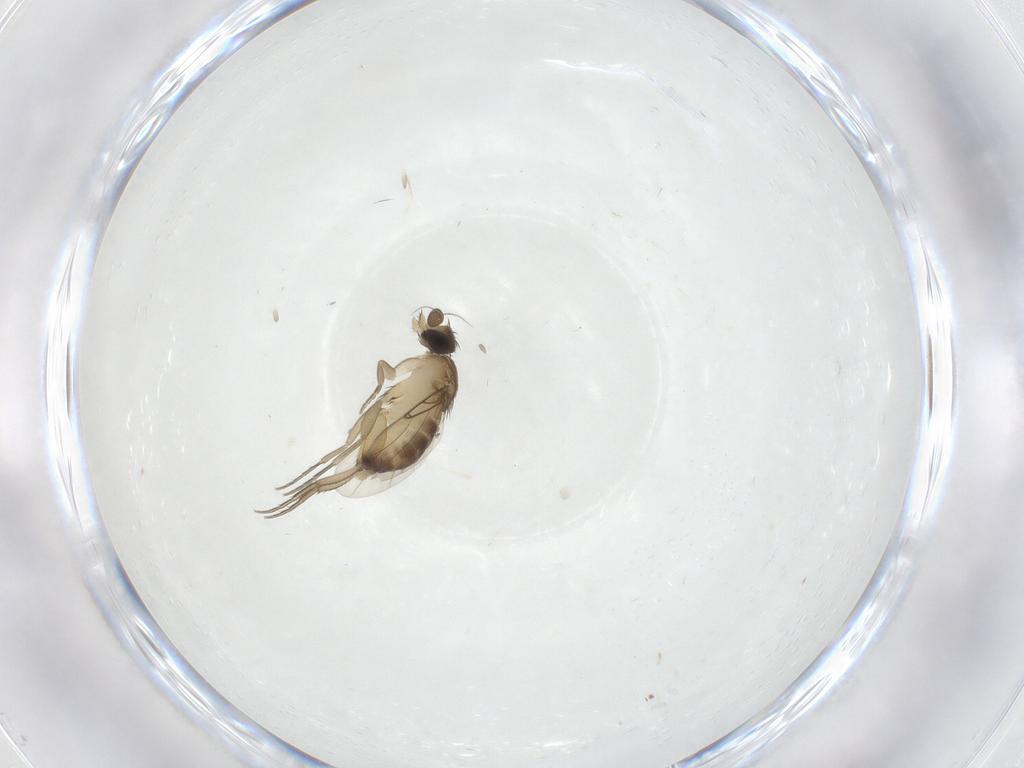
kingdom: Animalia
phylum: Arthropoda
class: Insecta
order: Diptera
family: Phoridae
